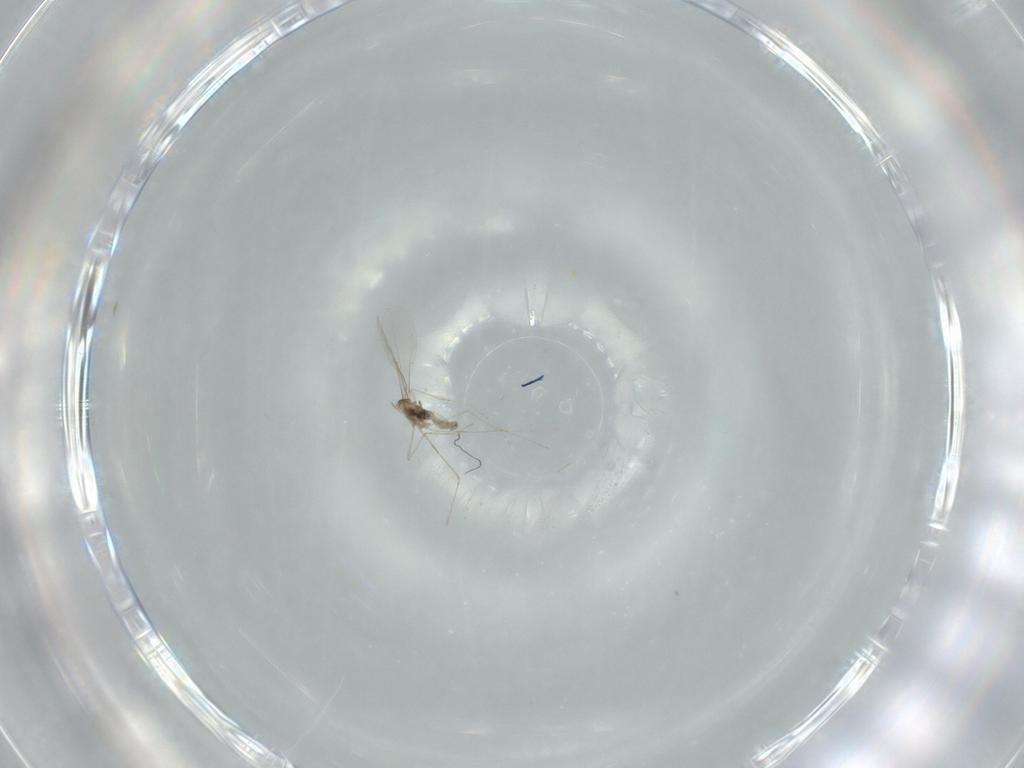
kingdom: Animalia
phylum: Arthropoda
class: Insecta
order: Diptera
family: Cecidomyiidae
